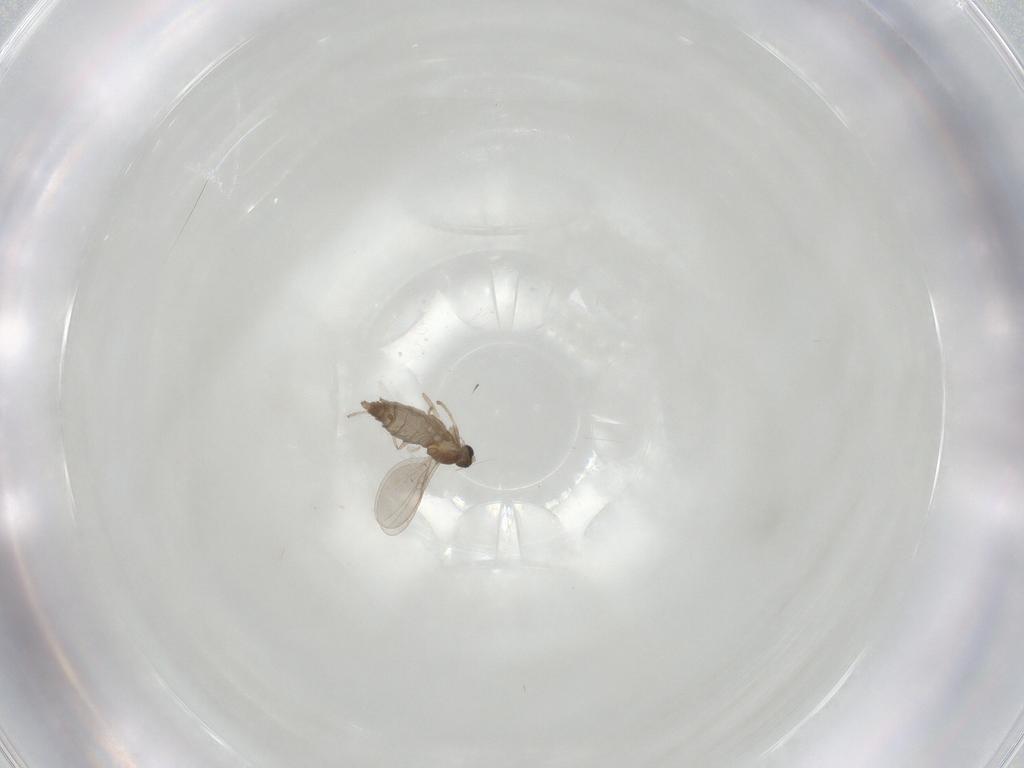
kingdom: Animalia
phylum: Arthropoda
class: Insecta
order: Diptera
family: Cecidomyiidae
